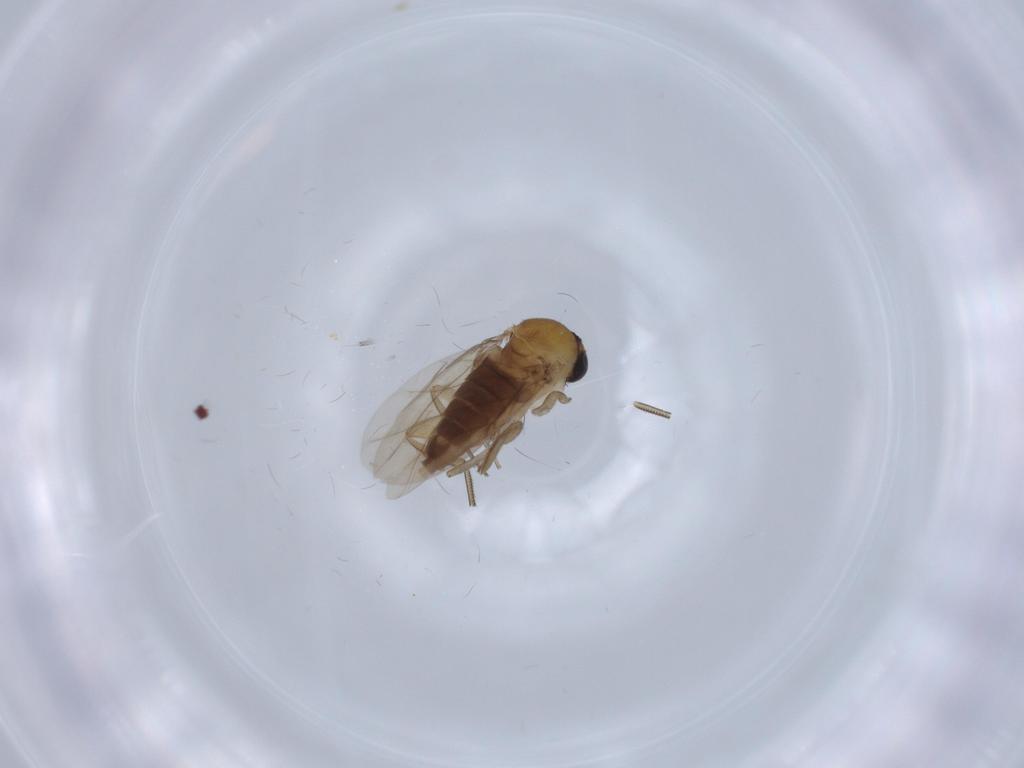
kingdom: Animalia
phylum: Arthropoda
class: Insecta
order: Diptera
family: Phoridae
